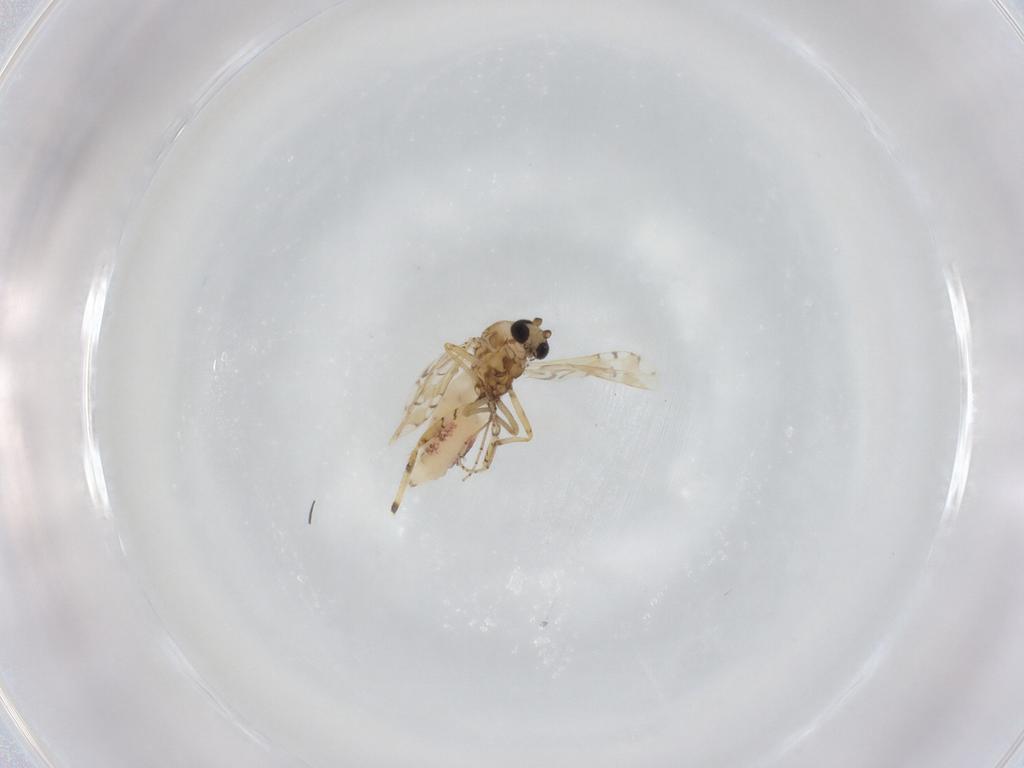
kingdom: Animalia
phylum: Arthropoda
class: Insecta
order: Diptera
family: Ceratopogonidae
